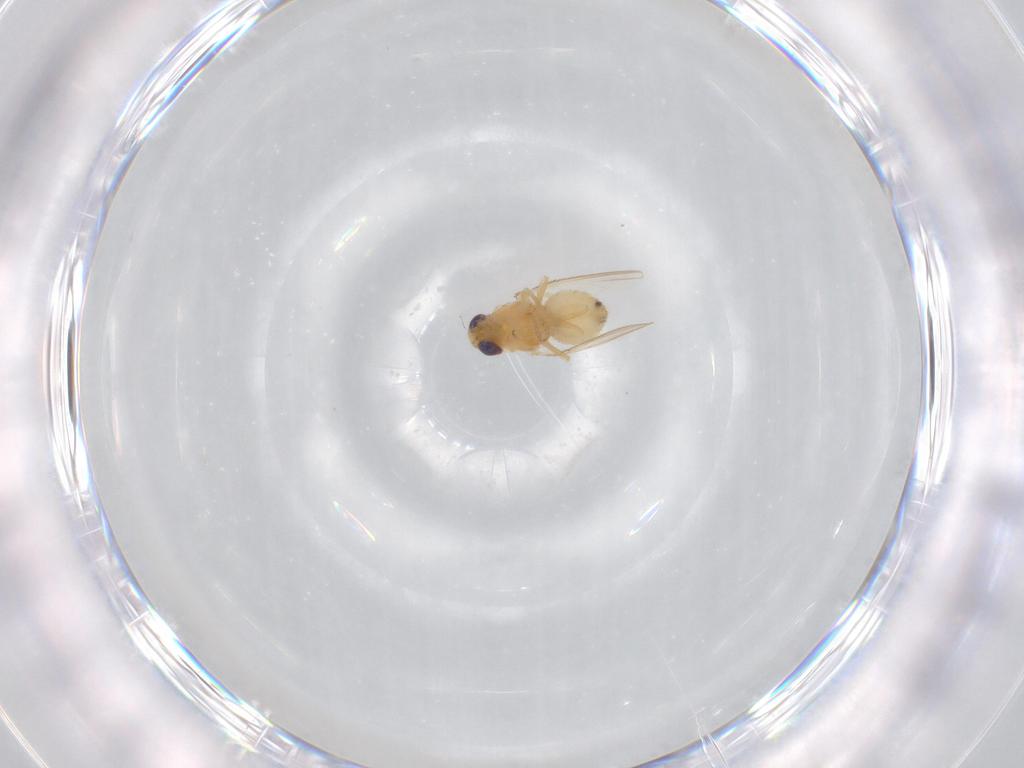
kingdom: Animalia
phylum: Arthropoda
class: Insecta
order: Diptera
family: Chyromyidae
